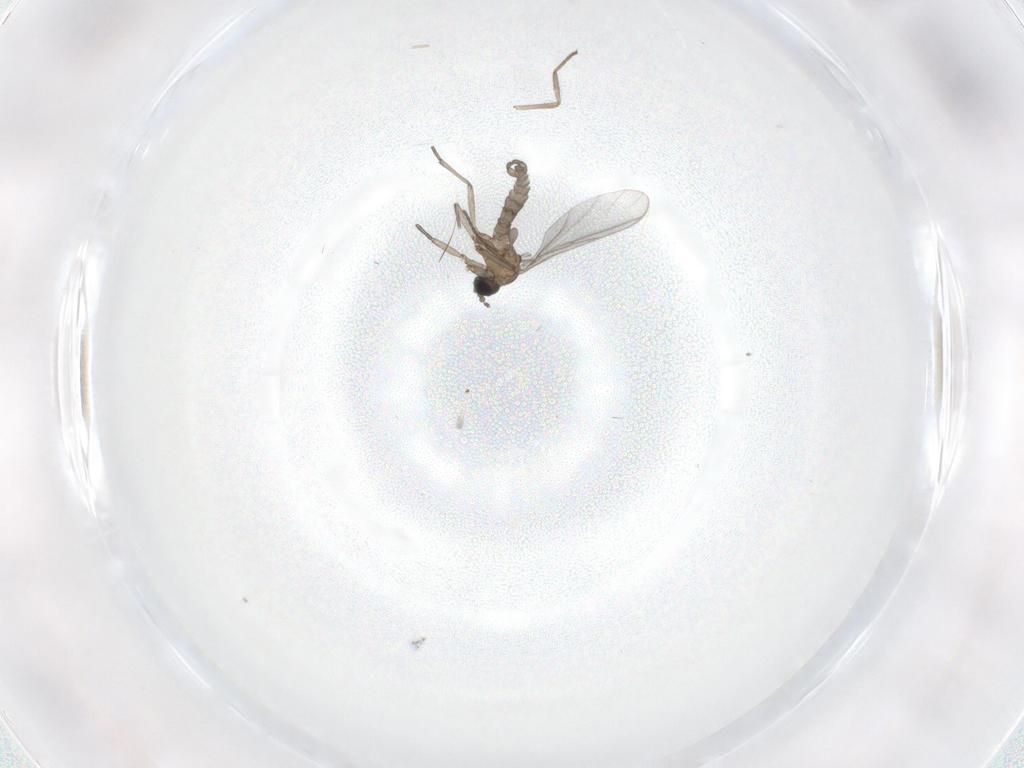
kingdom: Animalia
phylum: Arthropoda
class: Insecta
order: Diptera
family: Sciaridae
